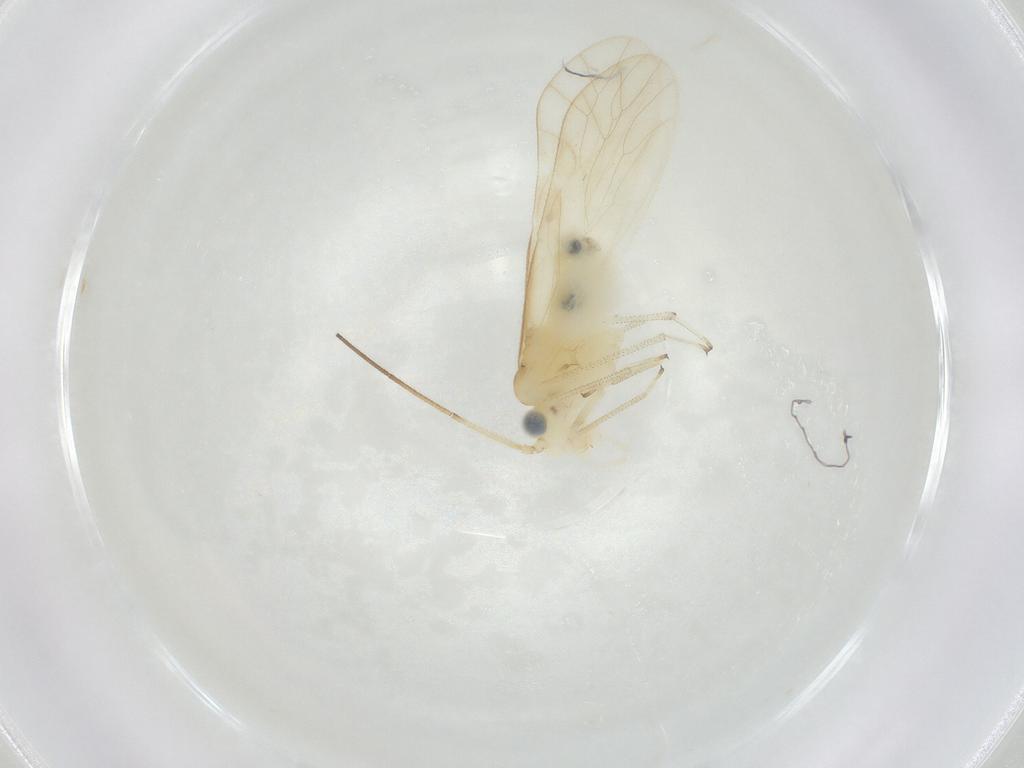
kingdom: Animalia
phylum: Arthropoda
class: Insecta
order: Psocodea
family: Caeciliusidae
